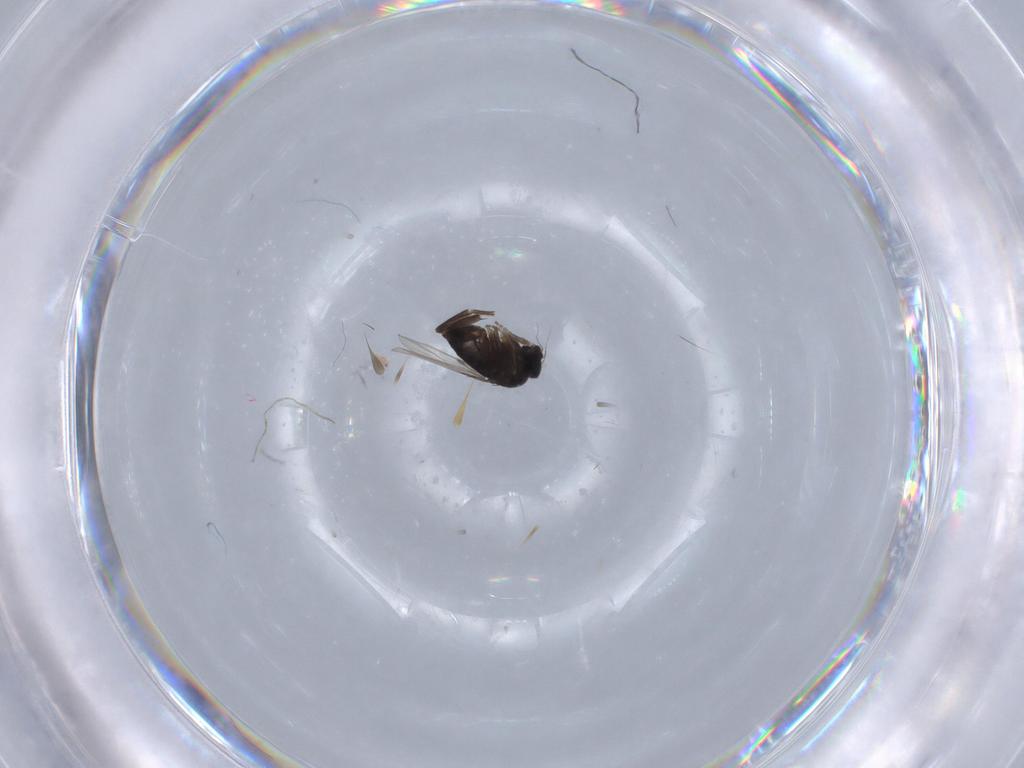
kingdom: Animalia
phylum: Arthropoda
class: Insecta
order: Diptera
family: Phoridae
